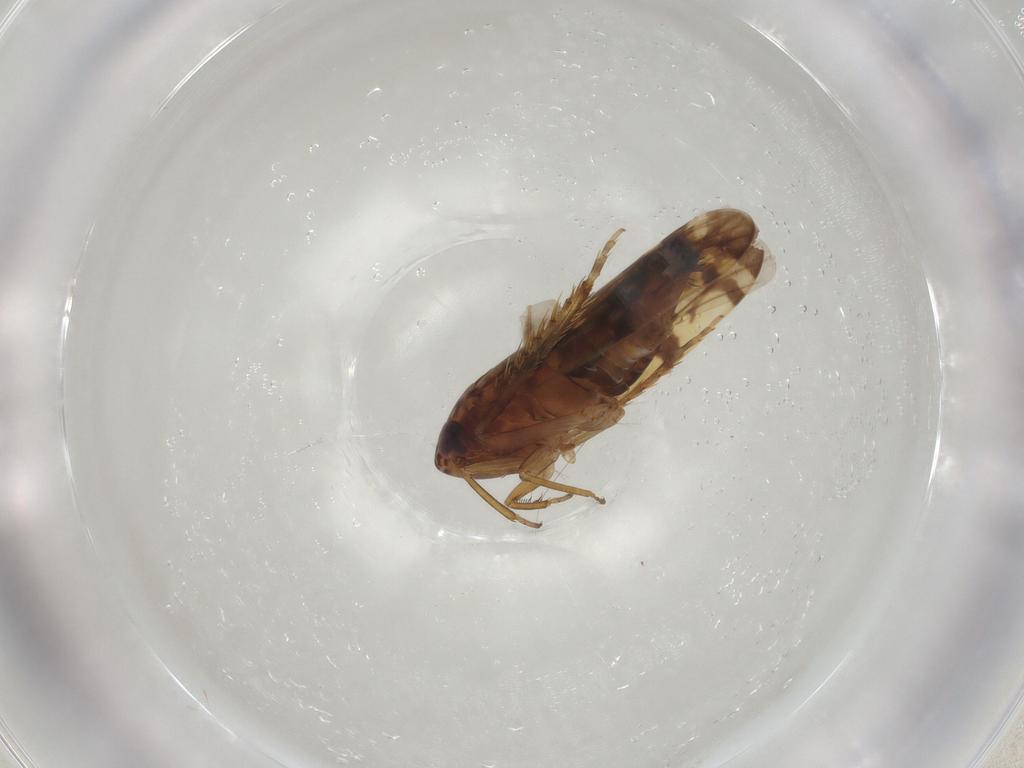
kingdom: Animalia
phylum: Arthropoda
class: Insecta
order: Hemiptera
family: Cicadellidae
